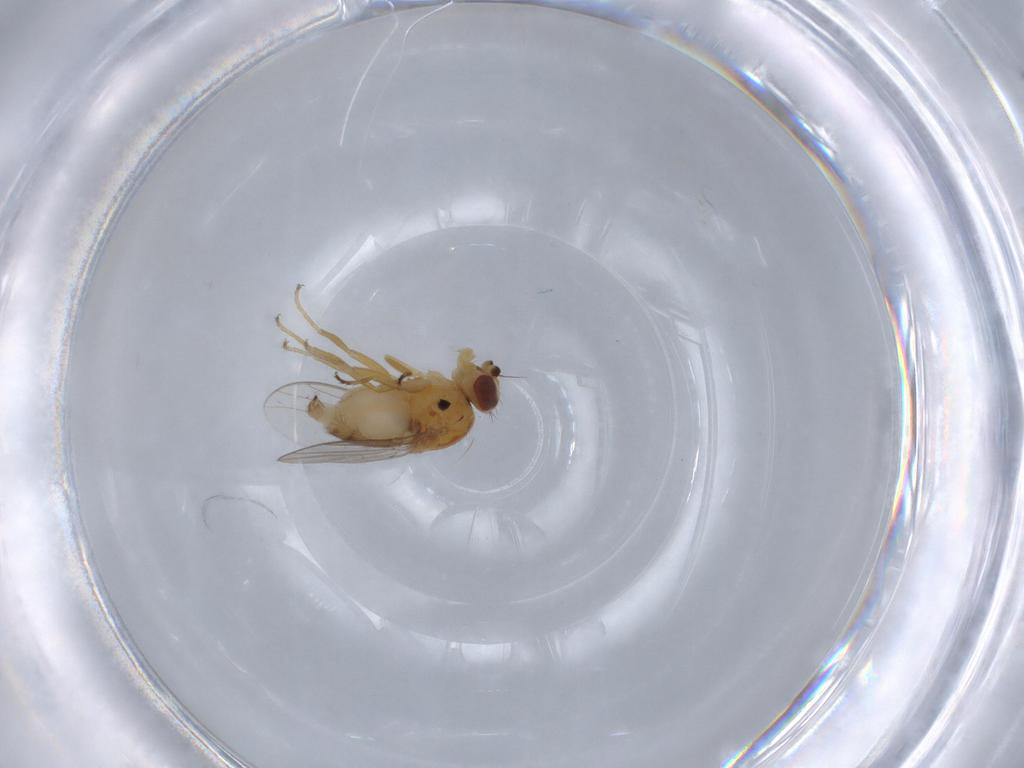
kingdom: Animalia
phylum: Arthropoda
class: Insecta
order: Diptera
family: Chloropidae
